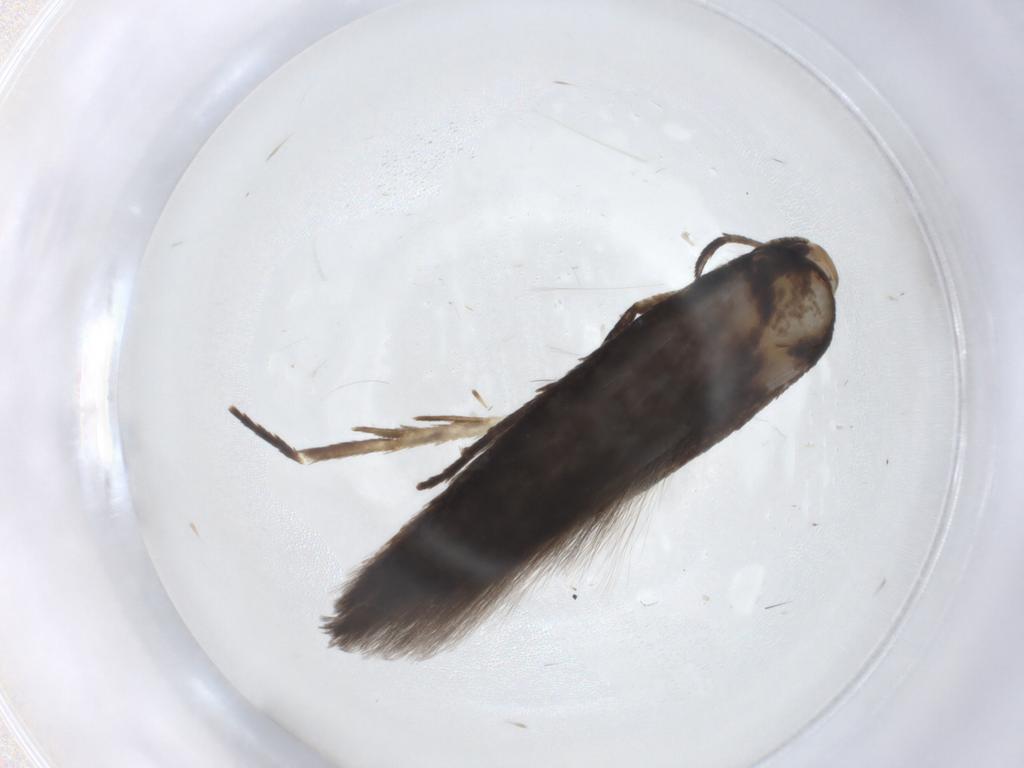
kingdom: Animalia
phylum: Arthropoda
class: Insecta
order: Lepidoptera
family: Cosmopterigidae
